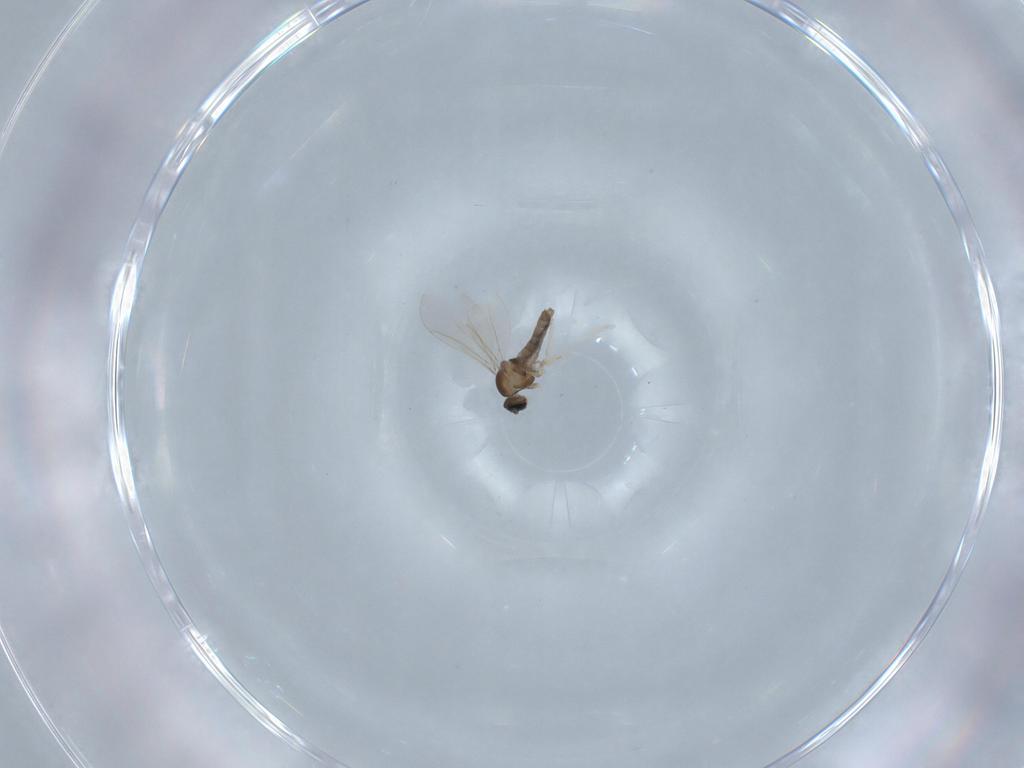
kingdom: Animalia
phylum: Arthropoda
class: Insecta
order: Diptera
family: Cecidomyiidae
